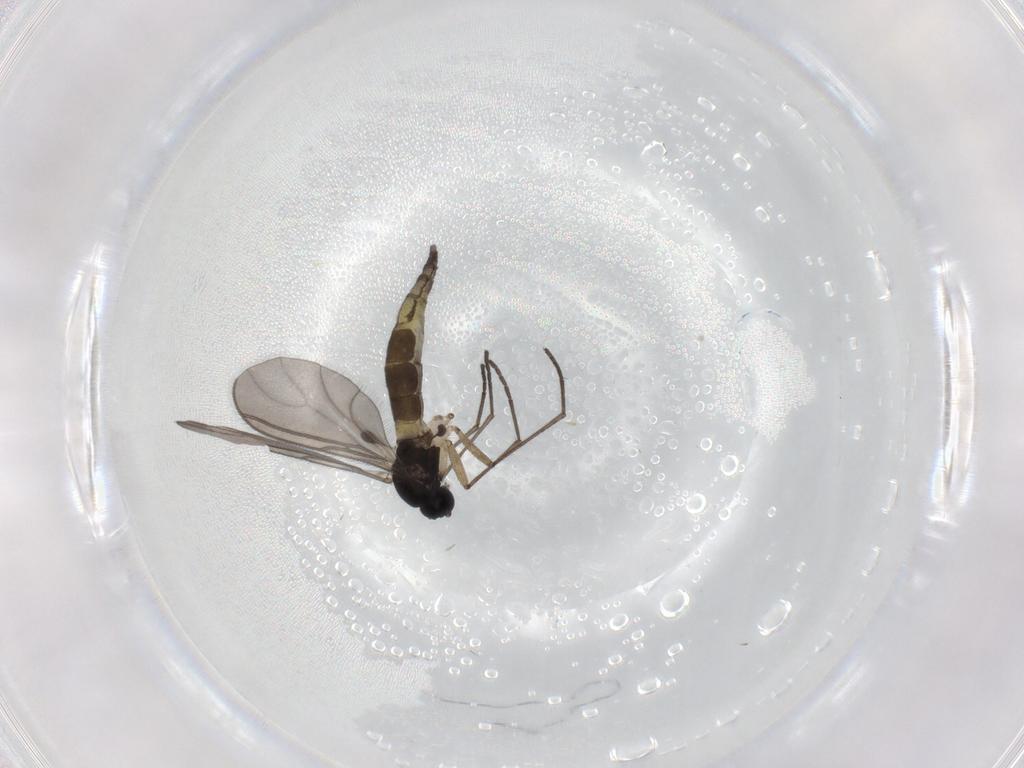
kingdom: Animalia
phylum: Arthropoda
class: Insecta
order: Diptera
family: Sciaridae
